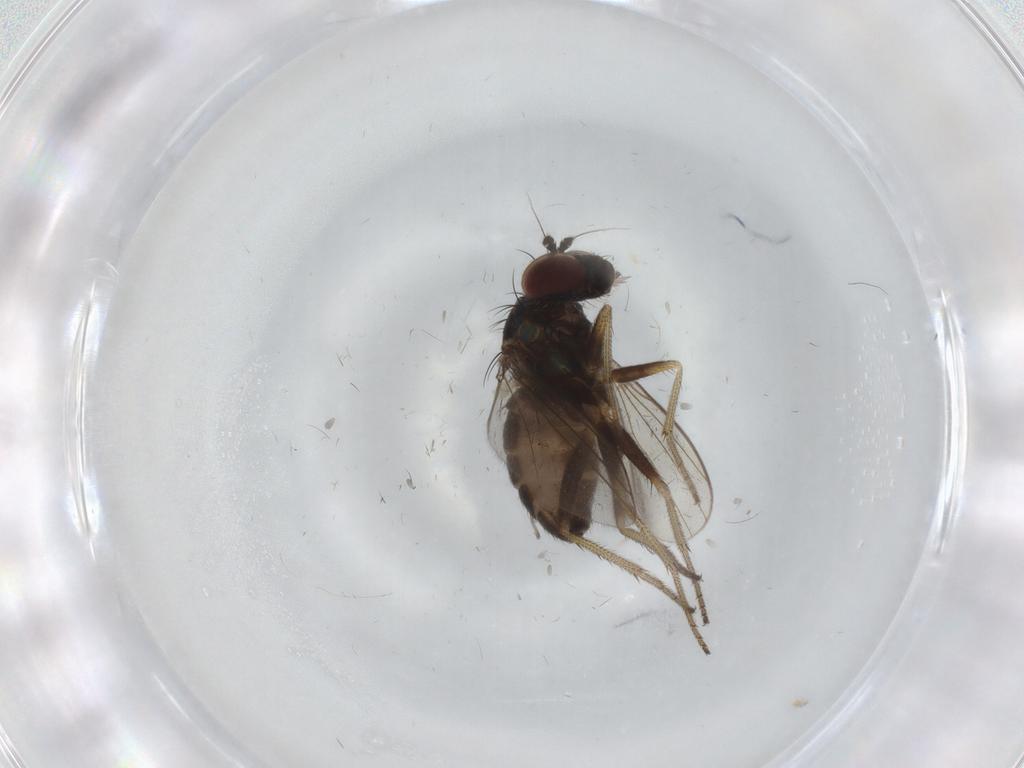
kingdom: Animalia
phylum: Arthropoda
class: Insecta
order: Diptera
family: Dolichopodidae
